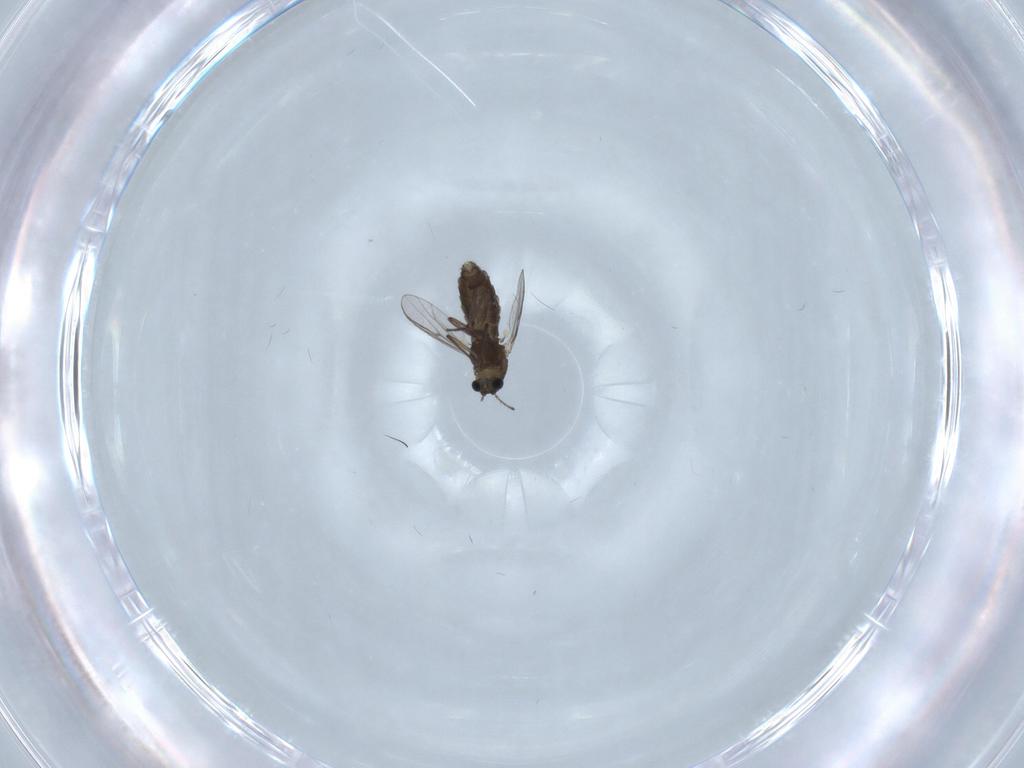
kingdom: Animalia
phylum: Arthropoda
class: Insecta
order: Diptera
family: Chironomidae
